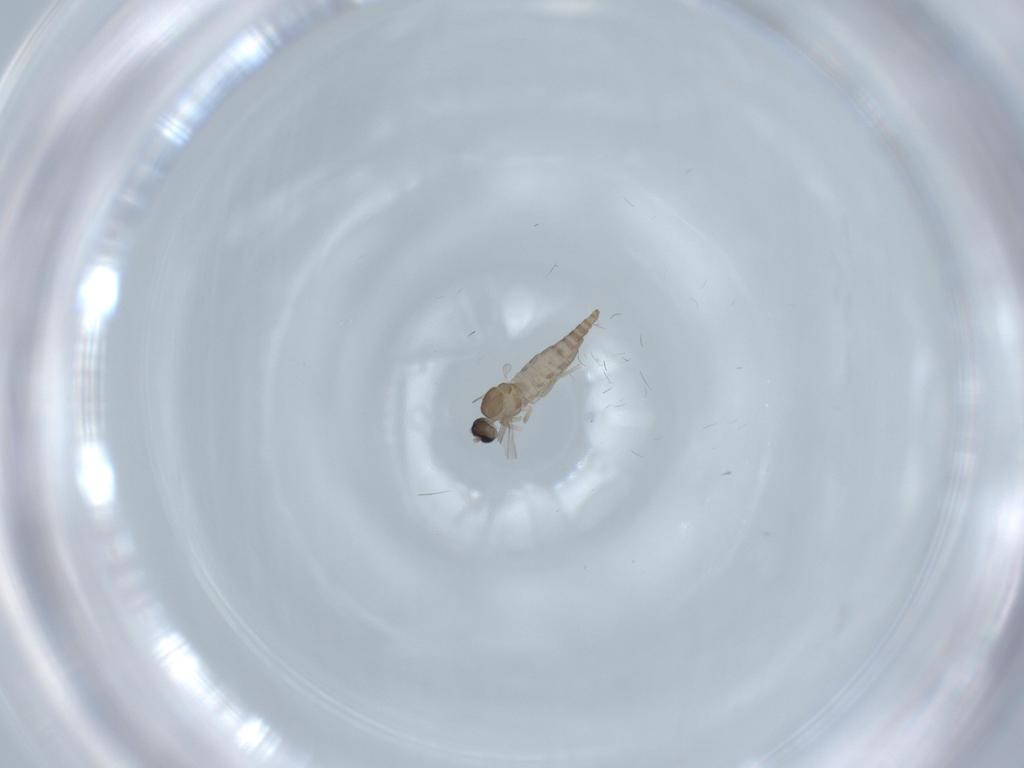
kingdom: Animalia
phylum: Arthropoda
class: Insecta
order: Diptera
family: Cecidomyiidae
